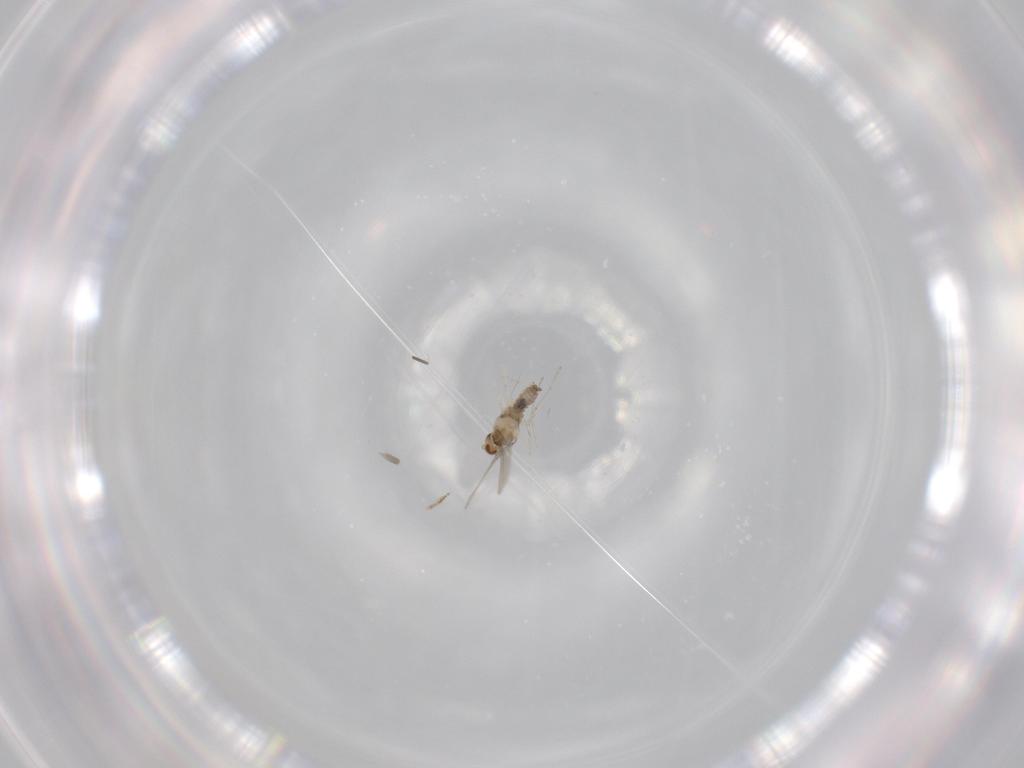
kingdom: Animalia
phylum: Arthropoda
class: Insecta
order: Diptera
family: Cecidomyiidae
